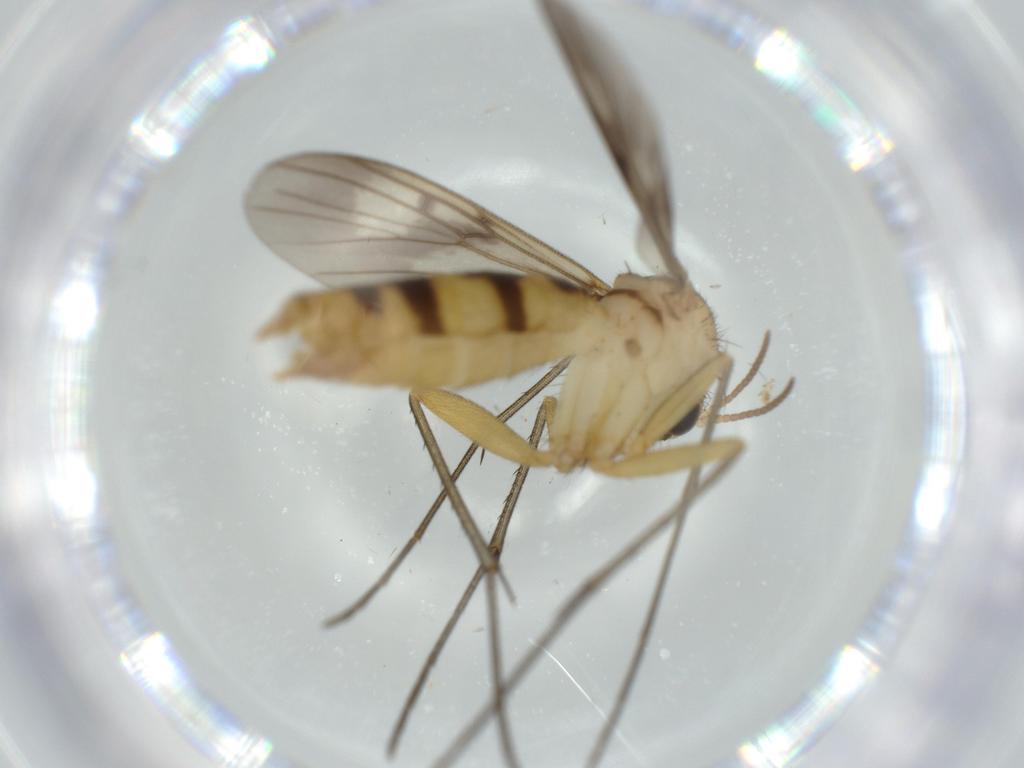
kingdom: Animalia
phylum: Arthropoda
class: Insecta
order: Diptera
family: Mycetophilidae
